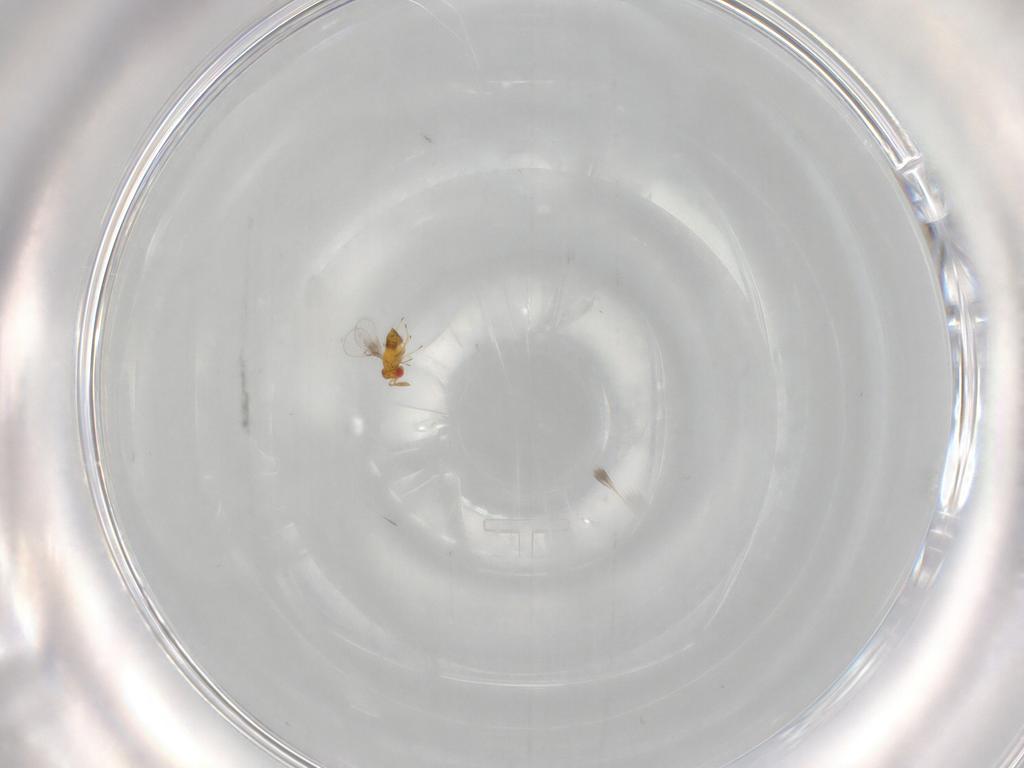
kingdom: Animalia
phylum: Arthropoda
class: Insecta
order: Hymenoptera
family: Trichogrammatidae
